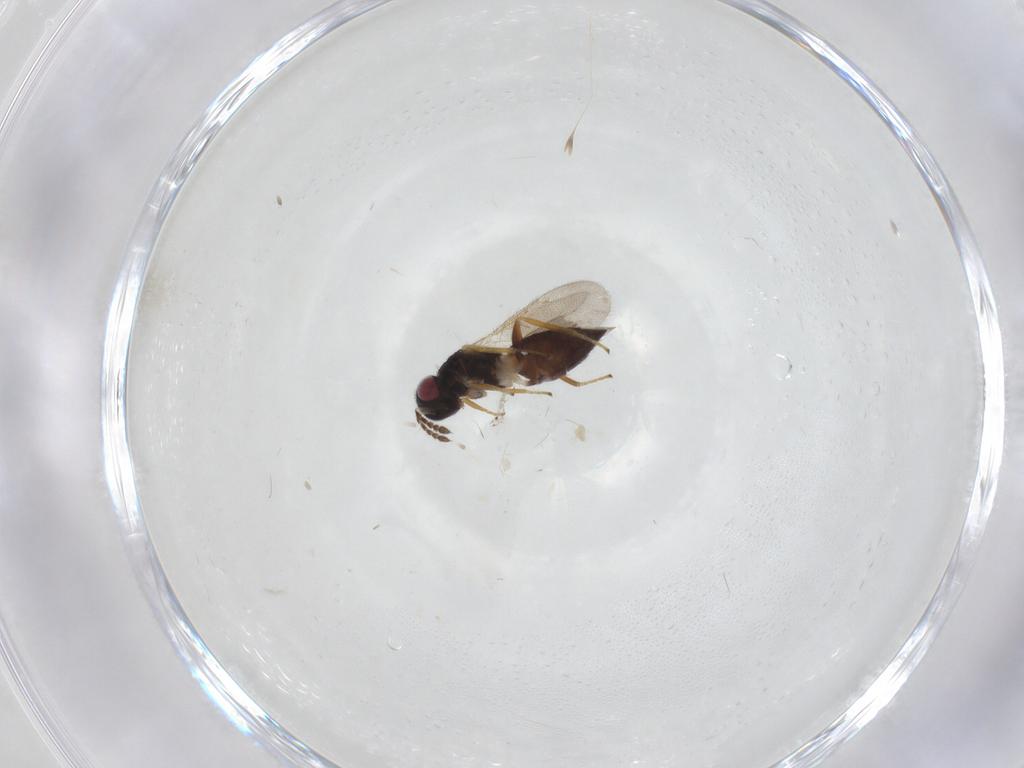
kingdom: Animalia
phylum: Arthropoda
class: Insecta
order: Hymenoptera
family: Eulophidae
